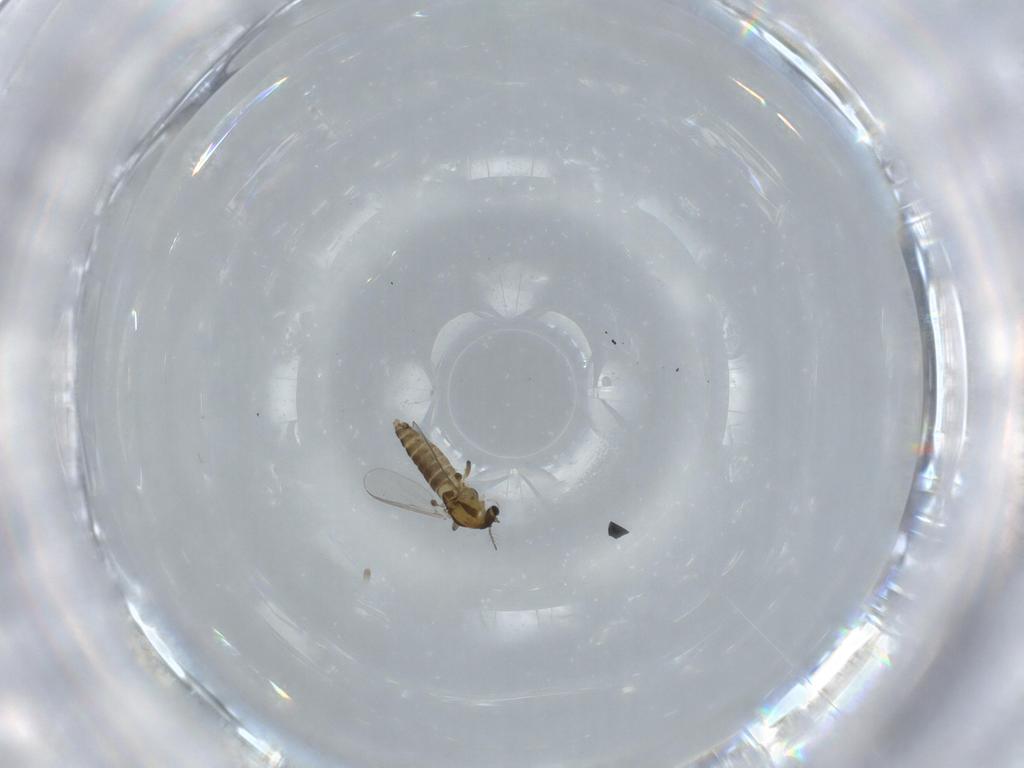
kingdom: Animalia
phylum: Arthropoda
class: Insecta
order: Diptera
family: Chironomidae
